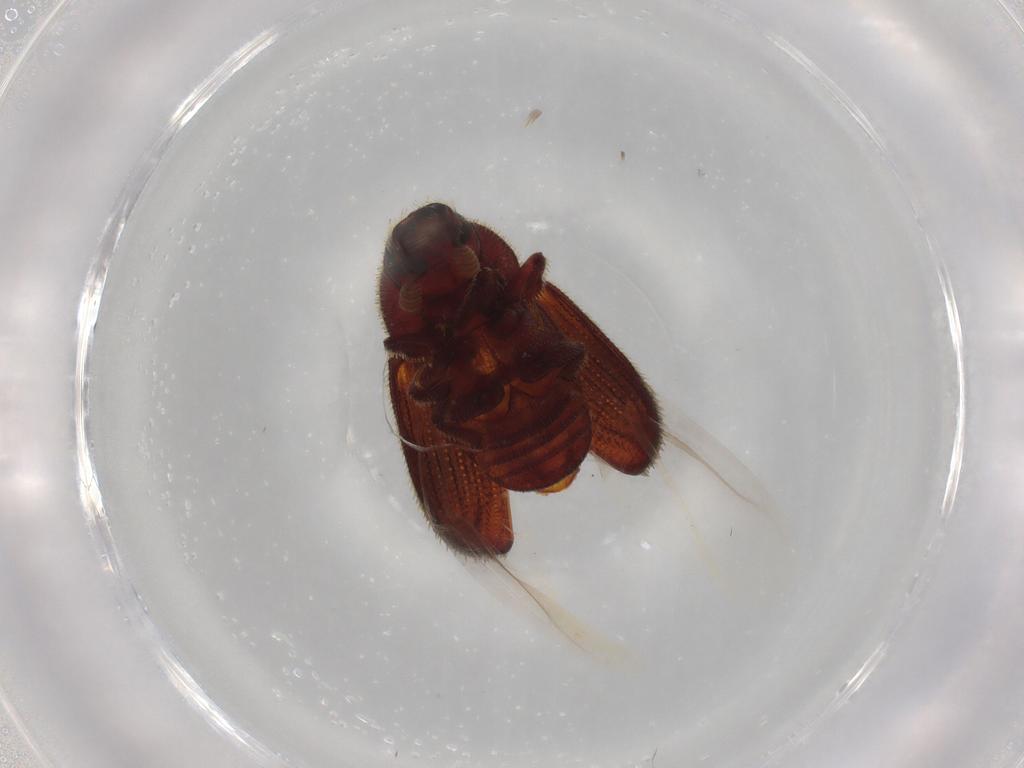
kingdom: Animalia
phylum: Arthropoda
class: Insecta
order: Coleoptera
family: Curculionidae
